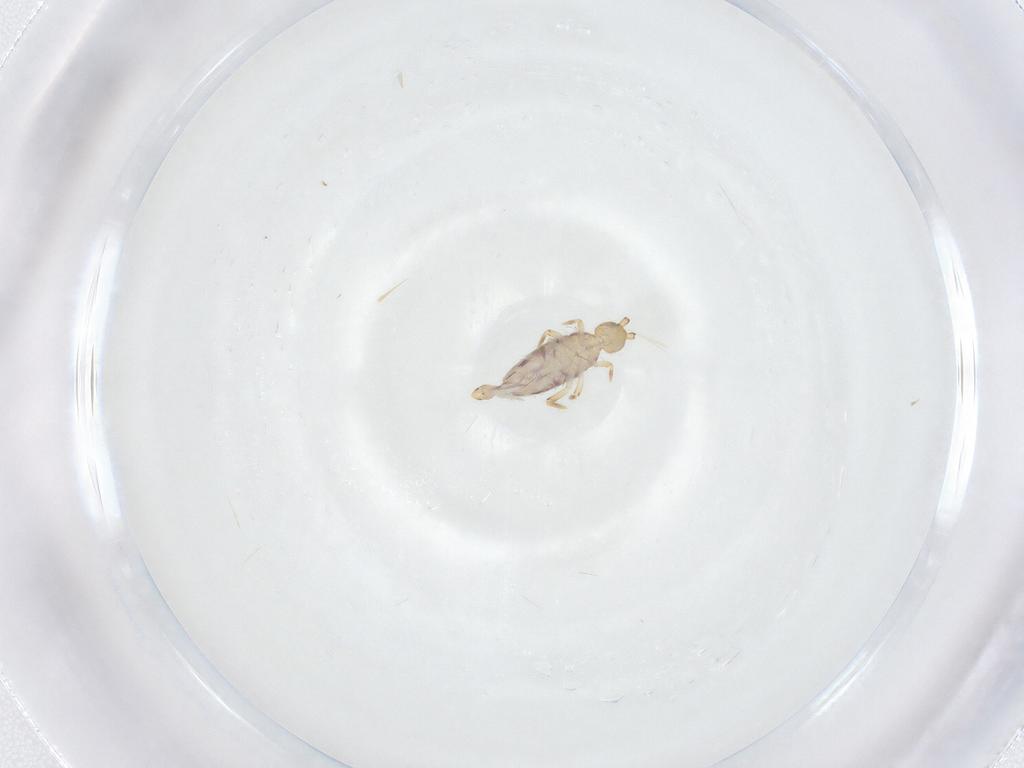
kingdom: Animalia
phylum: Arthropoda
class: Collembola
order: Entomobryomorpha
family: Entomobryidae
